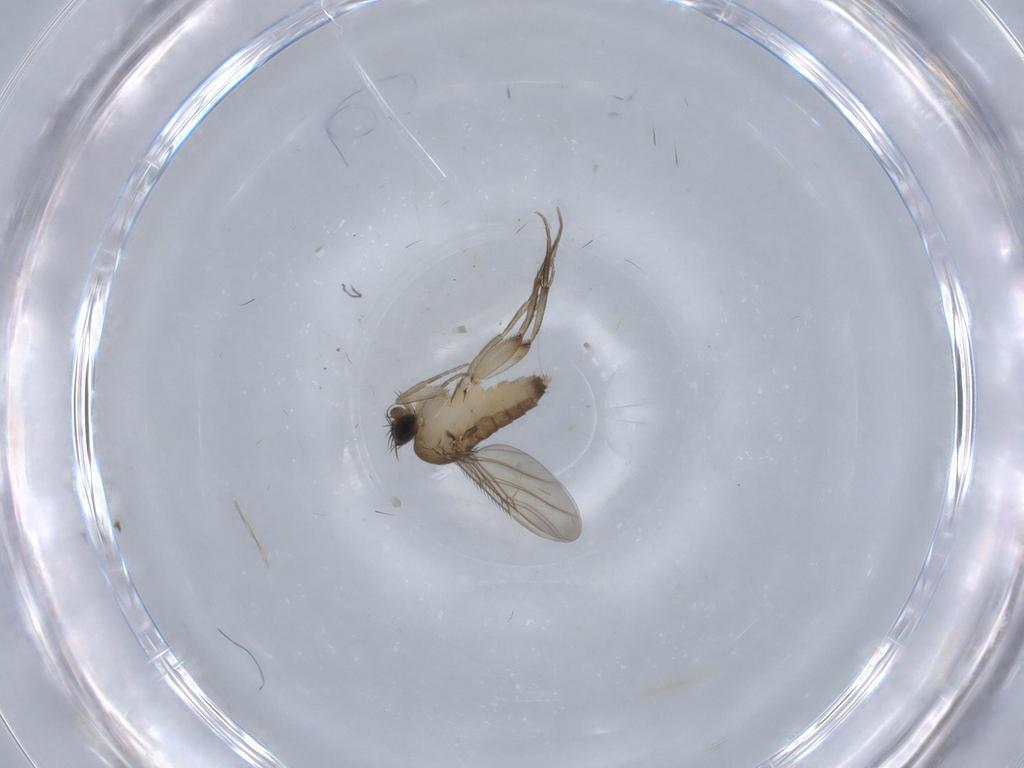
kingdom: Animalia
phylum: Arthropoda
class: Insecta
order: Diptera
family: Phoridae
